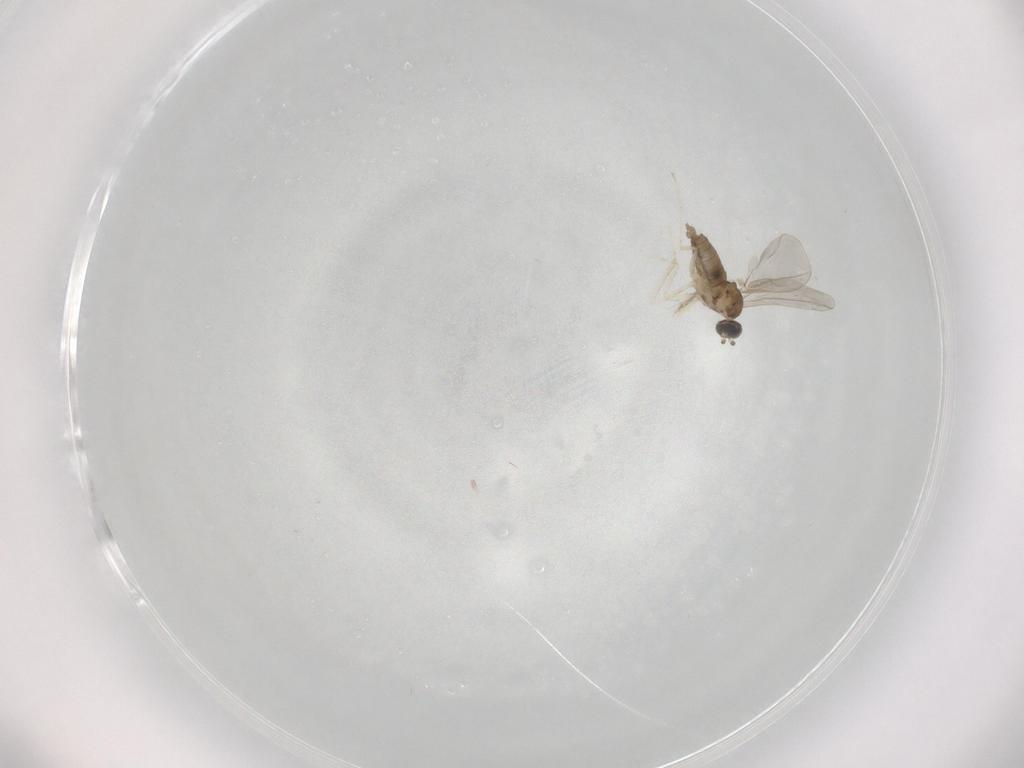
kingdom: Animalia
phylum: Arthropoda
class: Insecta
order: Diptera
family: Cecidomyiidae
